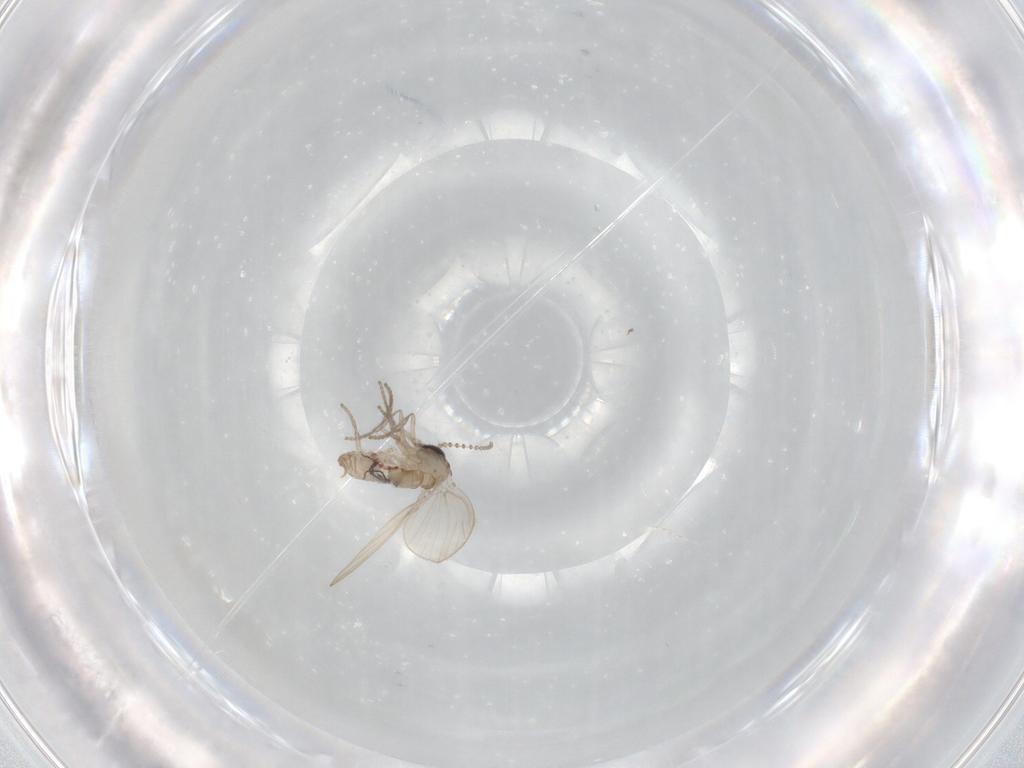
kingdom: Animalia
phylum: Arthropoda
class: Insecta
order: Diptera
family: Psychodidae
